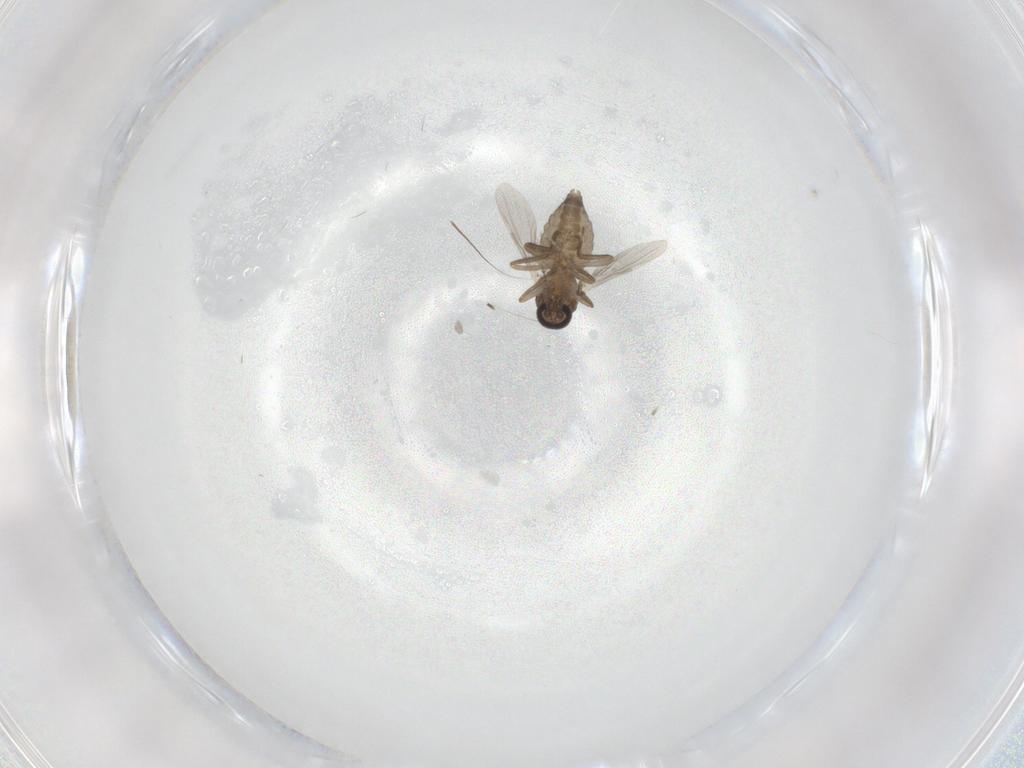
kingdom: Animalia
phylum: Arthropoda
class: Insecta
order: Diptera
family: Ceratopogonidae
